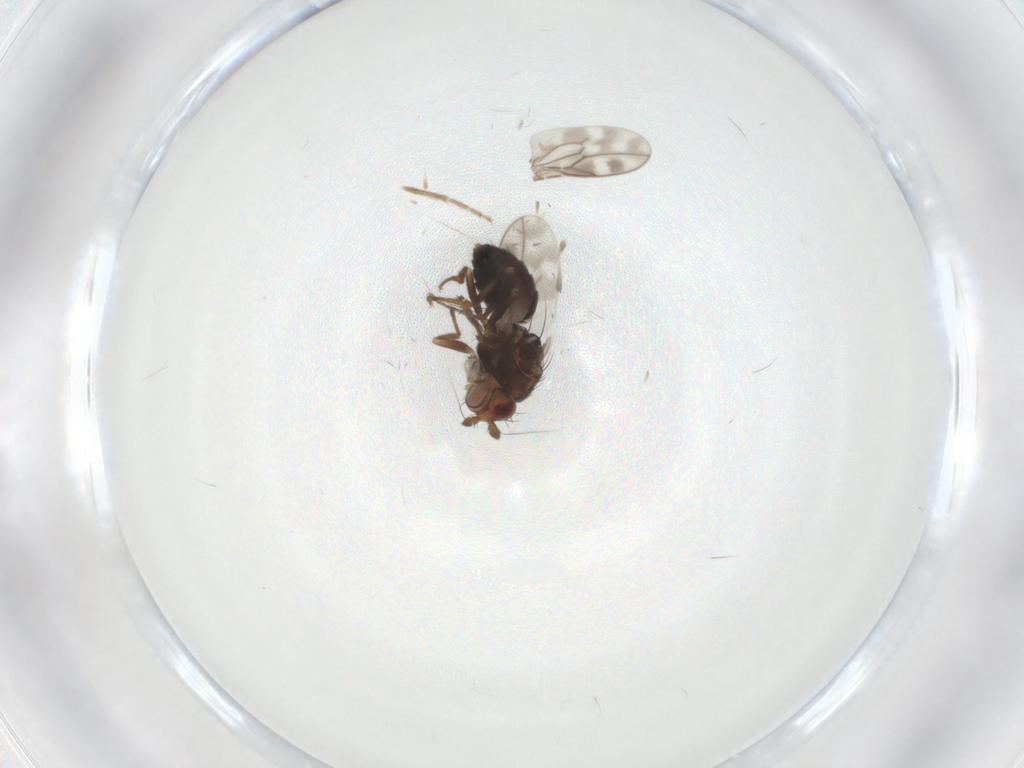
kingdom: Animalia
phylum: Arthropoda
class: Insecta
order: Diptera
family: Sphaeroceridae
